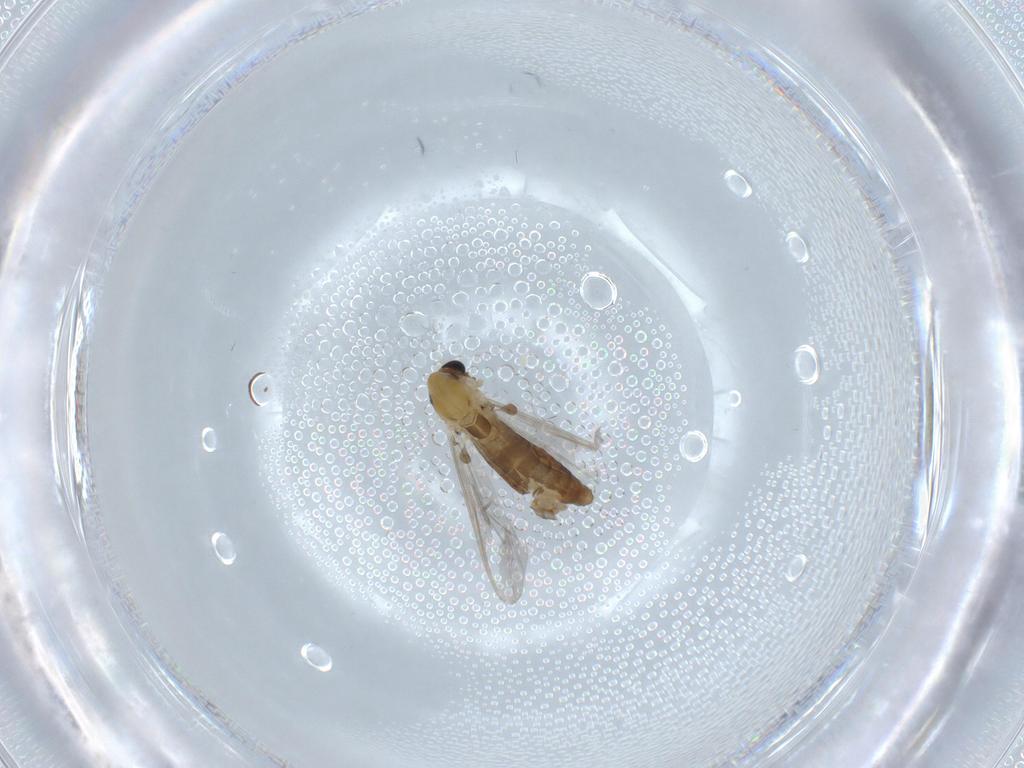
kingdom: Animalia
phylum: Arthropoda
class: Insecta
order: Diptera
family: Chironomidae
